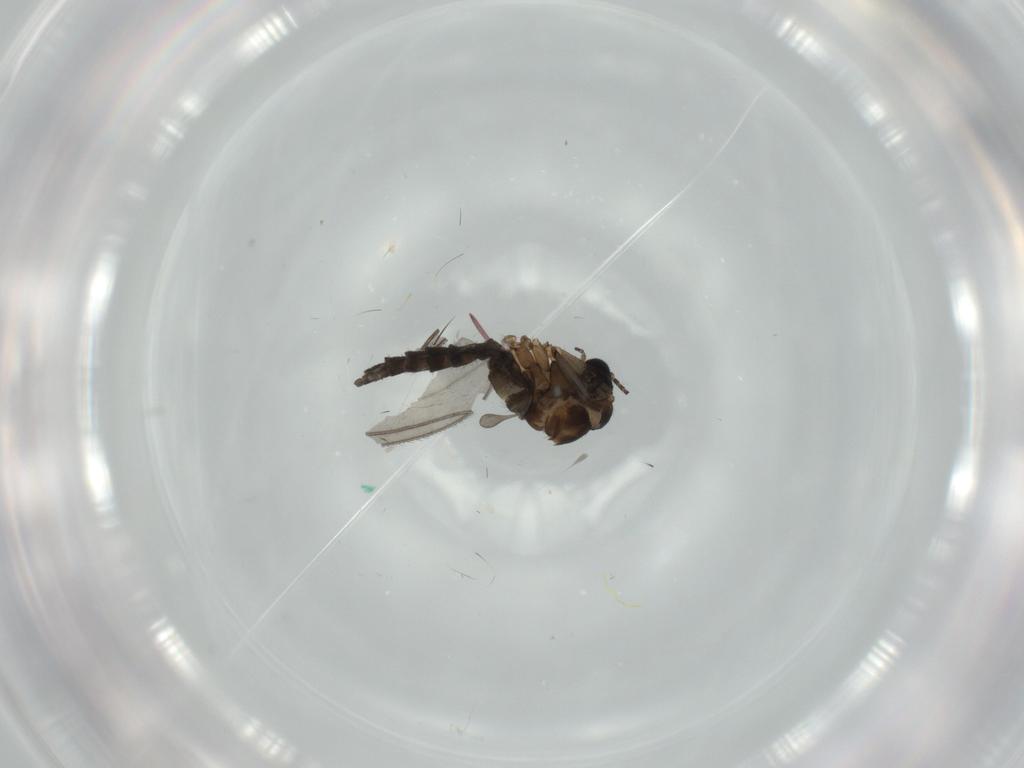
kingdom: Animalia
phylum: Arthropoda
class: Insecta
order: Diptera
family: Sciaridae
